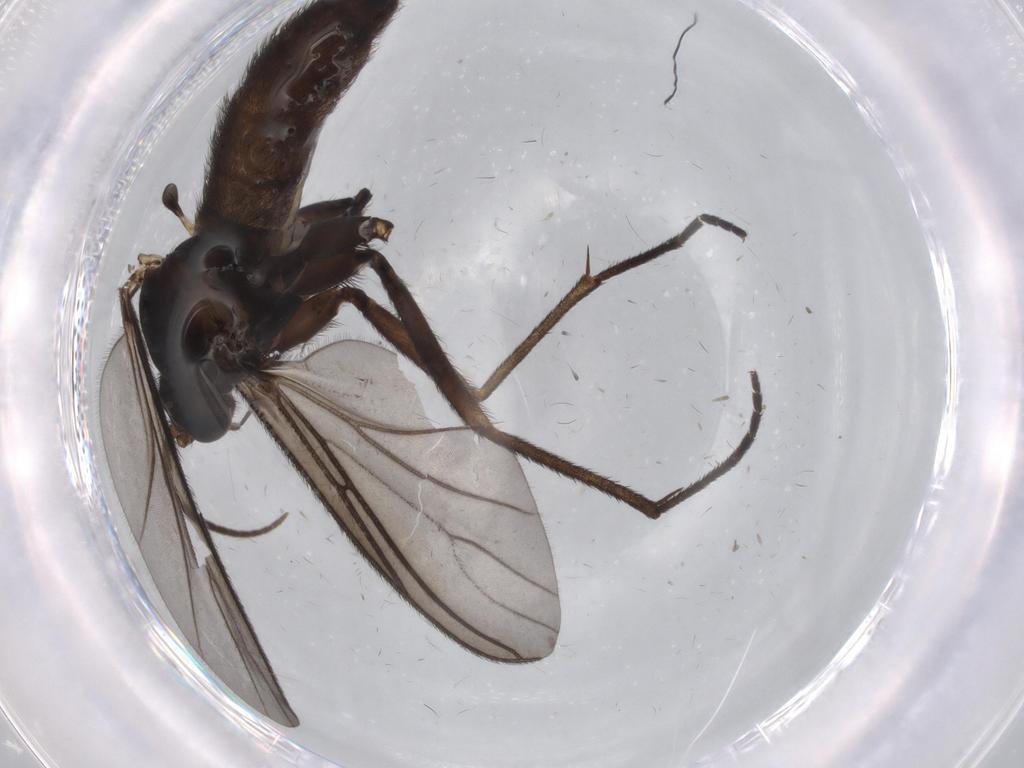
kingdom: Animalia
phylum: Arthropoda
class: Insecta
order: Diptera
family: Sciaridae
